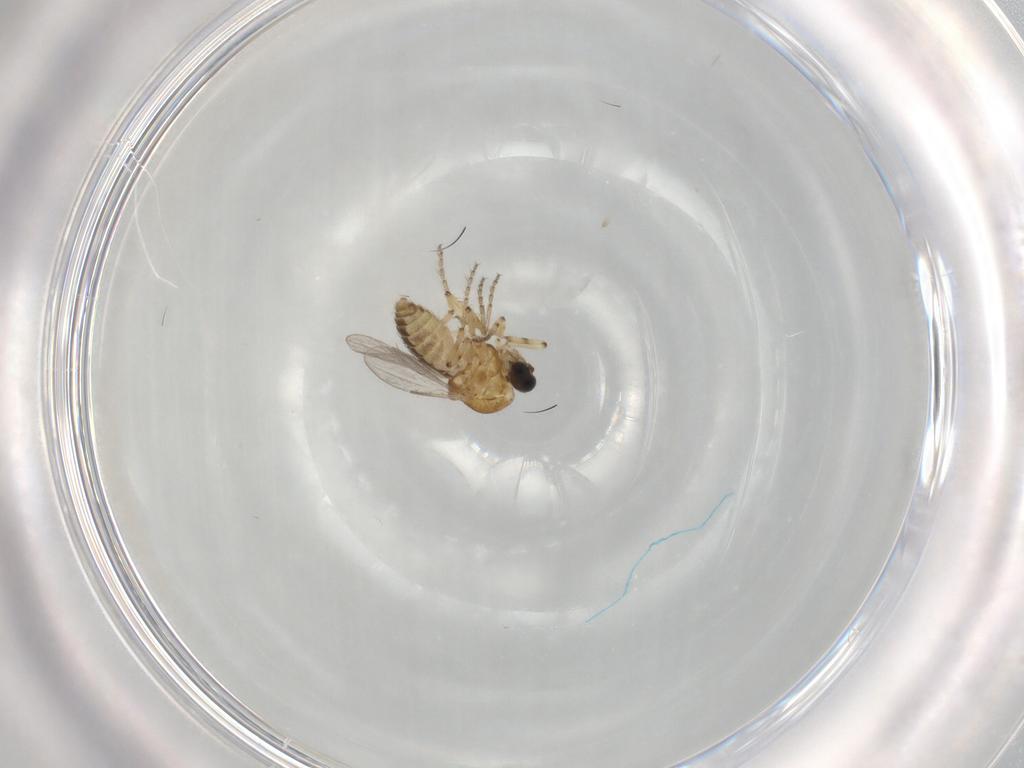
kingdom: Animalia
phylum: Arthropoda
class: Insecta
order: Diptera
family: Ceratopogonidae
